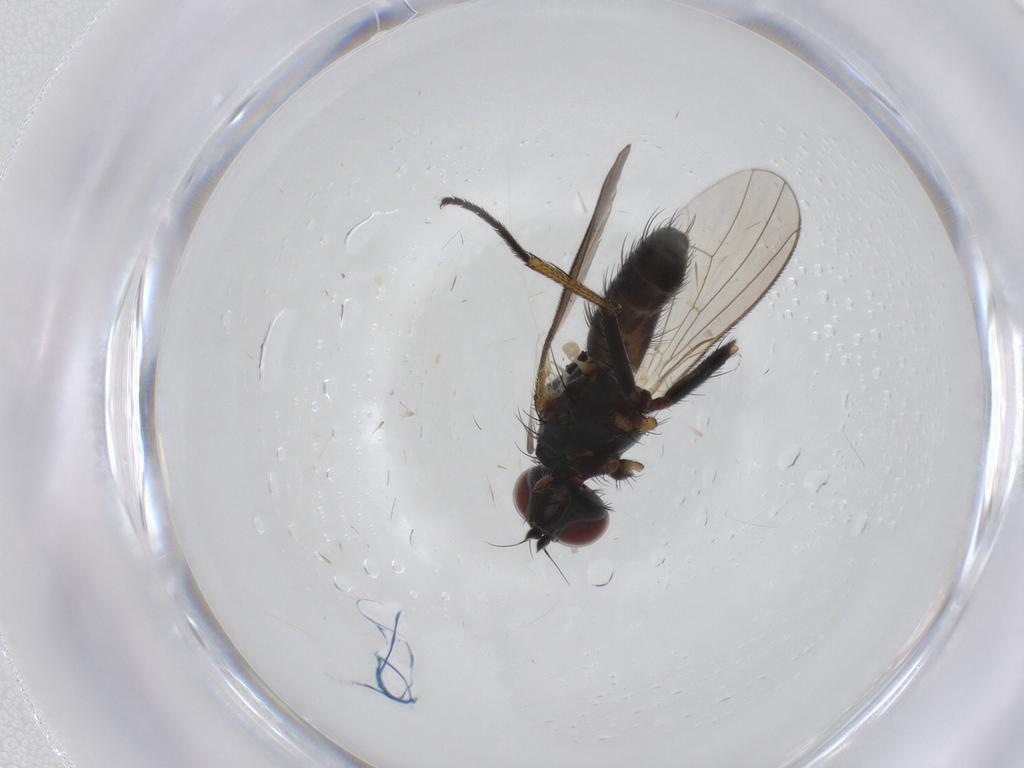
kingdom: Animalia
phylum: Arthropoda
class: Insecta
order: Diptera
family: Muscidae
